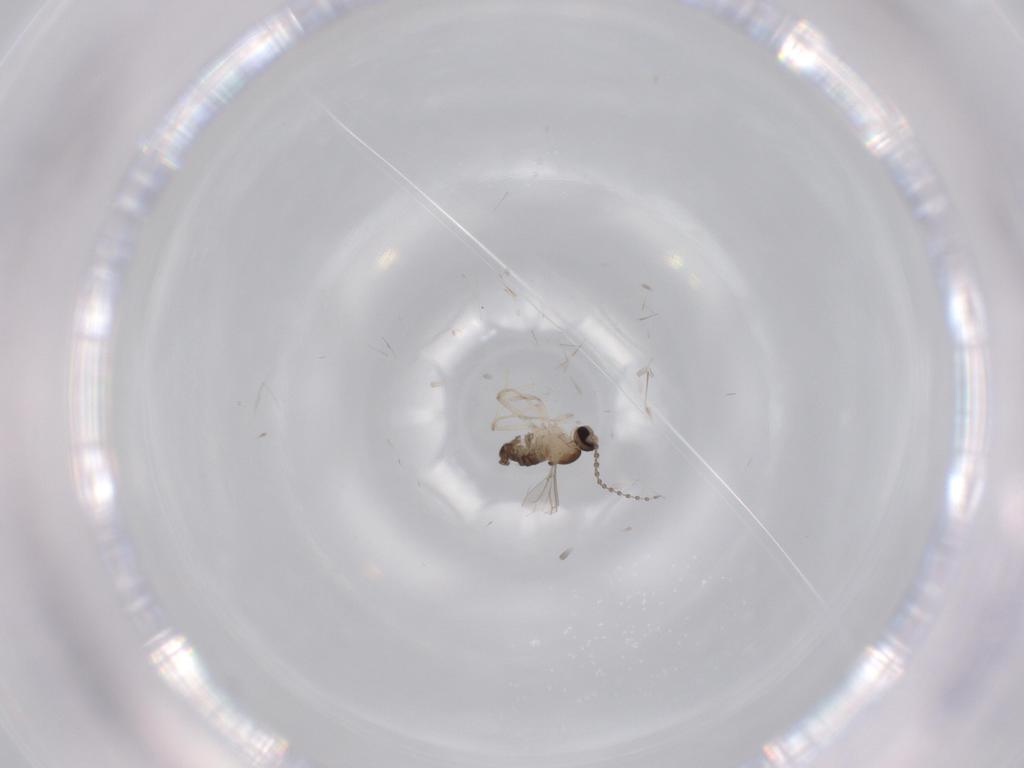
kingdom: Animalia
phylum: Arthropoda
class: Insecta
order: Diptera
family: Cecidomyiidae
